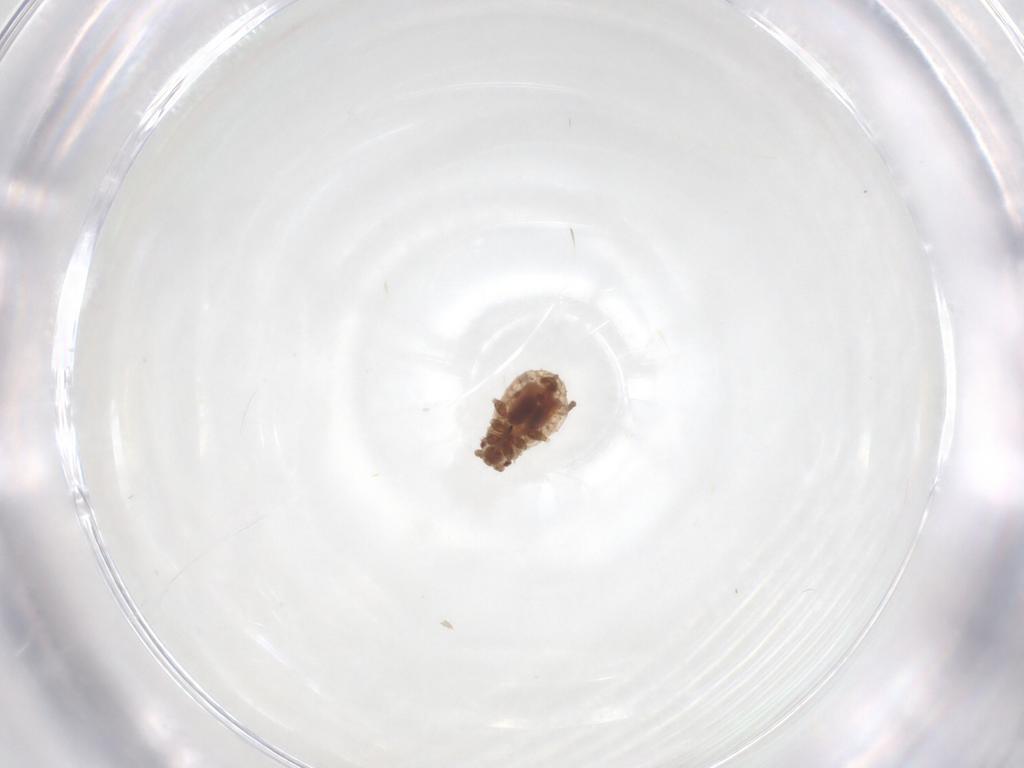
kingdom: Animalia
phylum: Arthropoda
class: Insecta
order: Hemiptera
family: Aphididae
